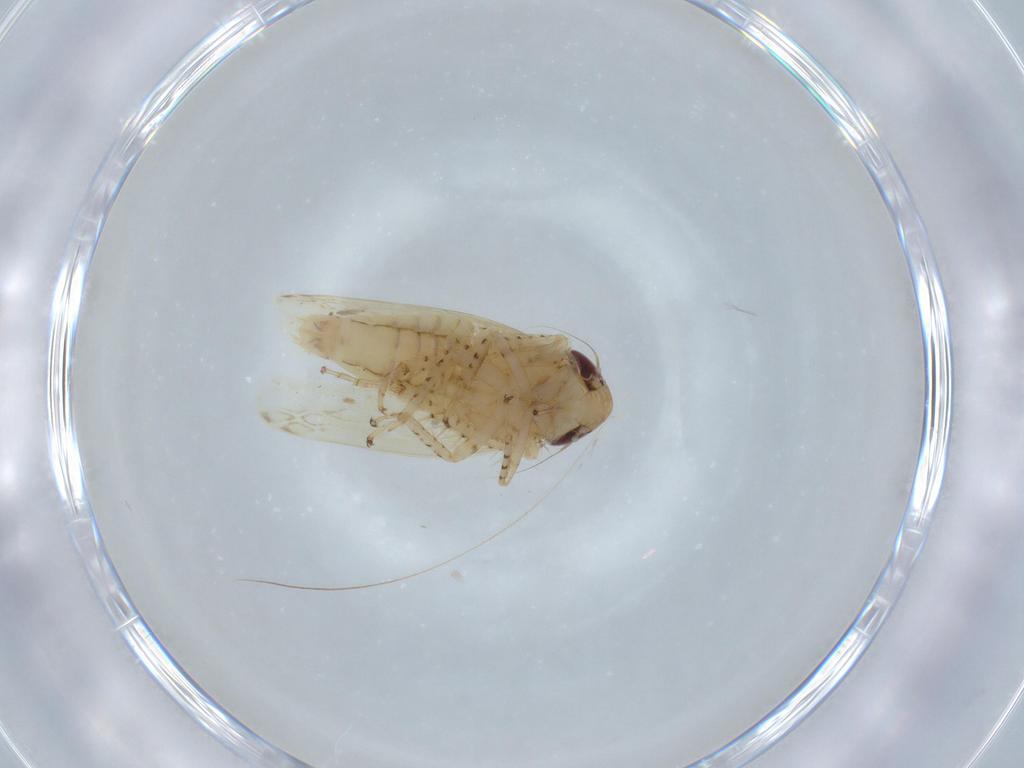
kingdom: Animalia
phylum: Arthropoda
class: Insecta
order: Hemiptera
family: Cicadellidae
